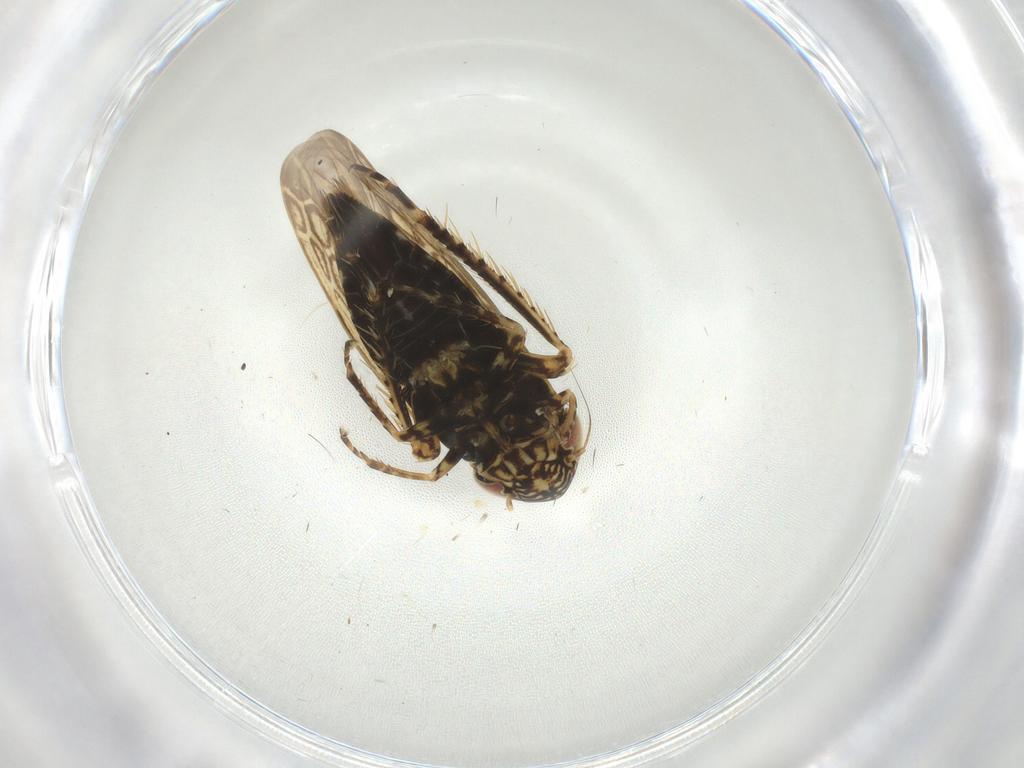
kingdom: Animalia
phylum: Arthropoda
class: Insecta
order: Hemiptera
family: Cicadellidae
